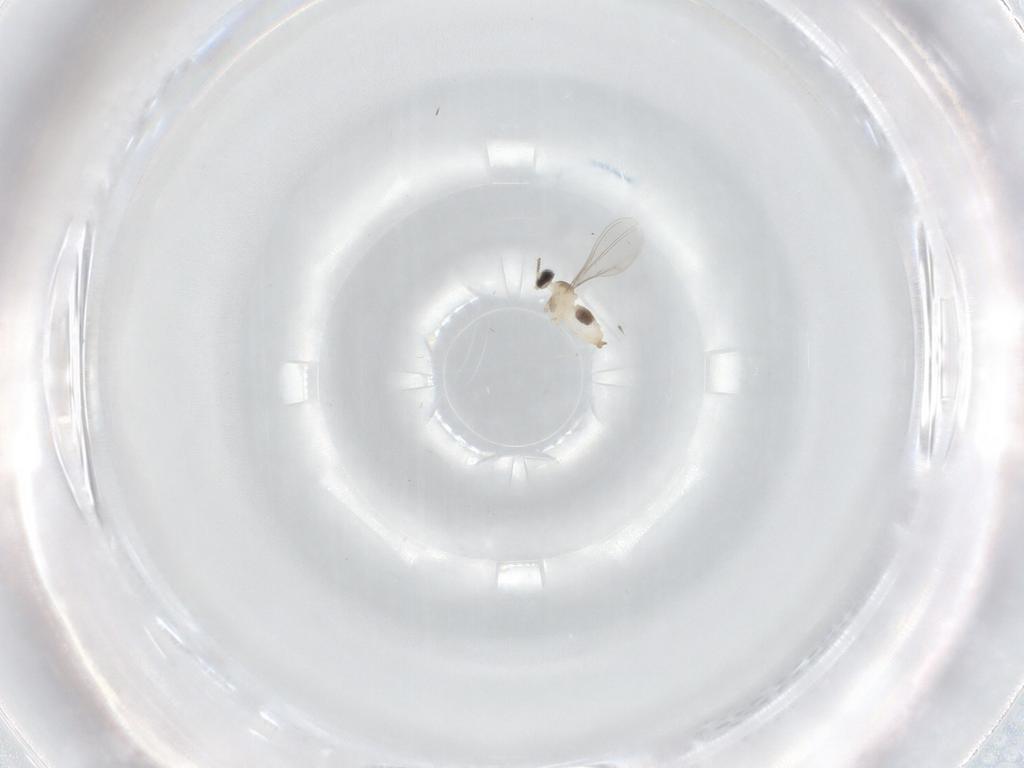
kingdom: Animalia
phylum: Arthropoda
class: Insecta
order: Diptera
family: Cecidomyiidae
